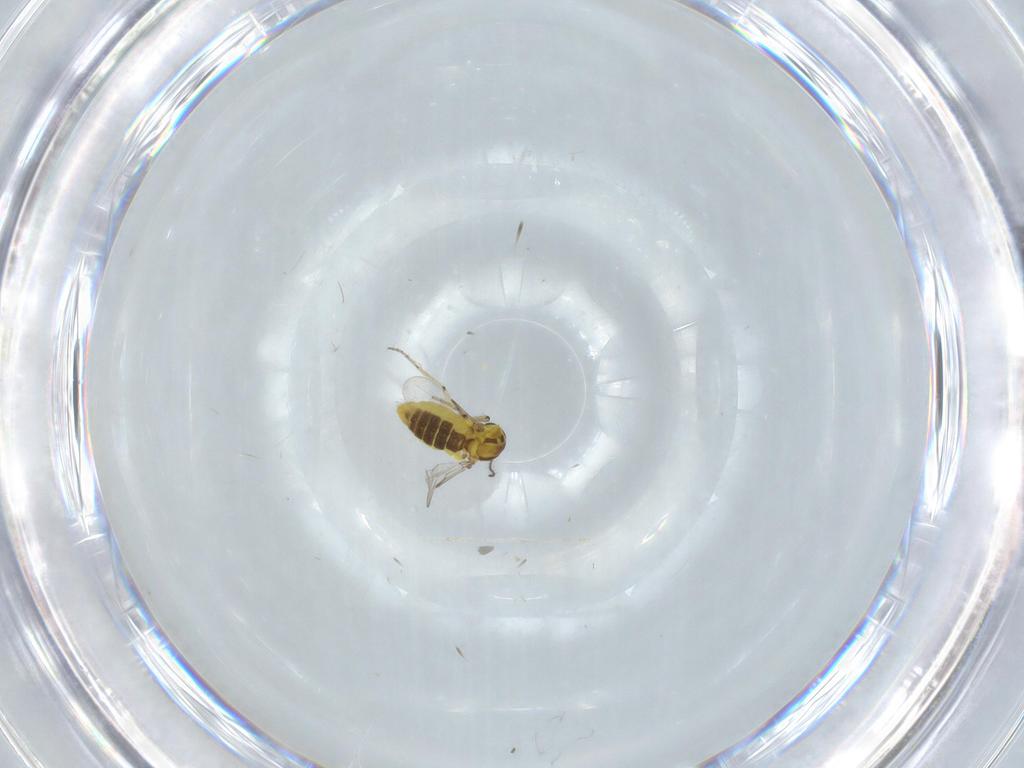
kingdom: Animalia
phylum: Arthropoda
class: Insecta
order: Diptera
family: Ceratopogonidae
